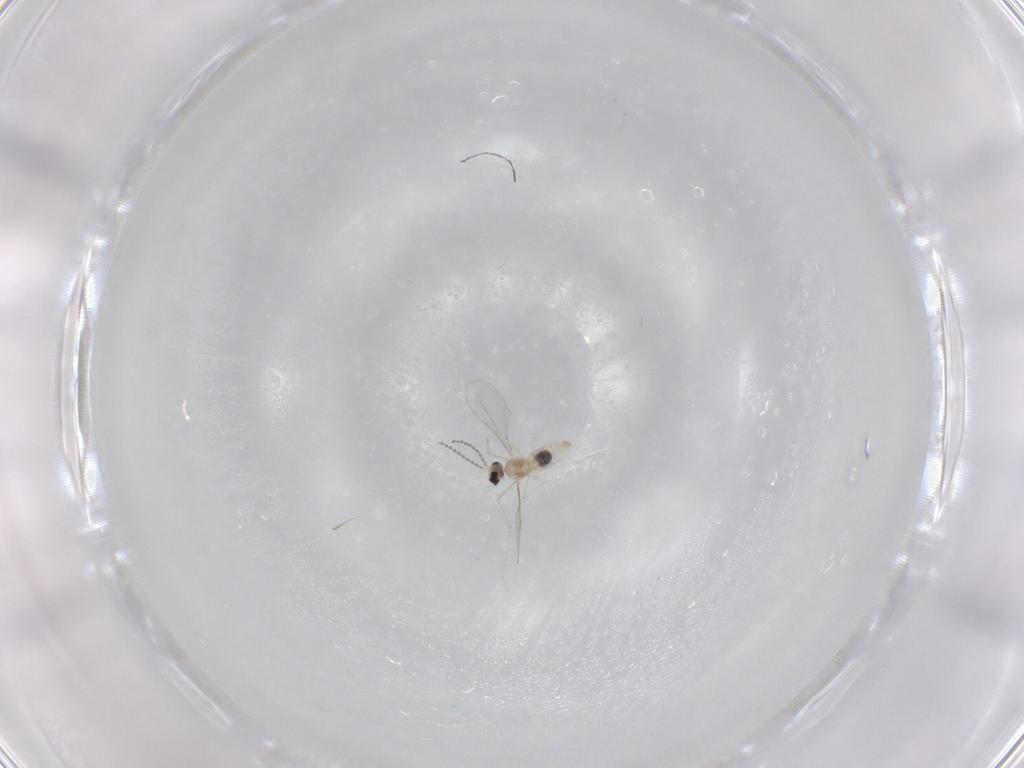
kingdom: Animalia
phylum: Arthropoda
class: Insecta
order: Diptera
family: Cecidomyiidae
